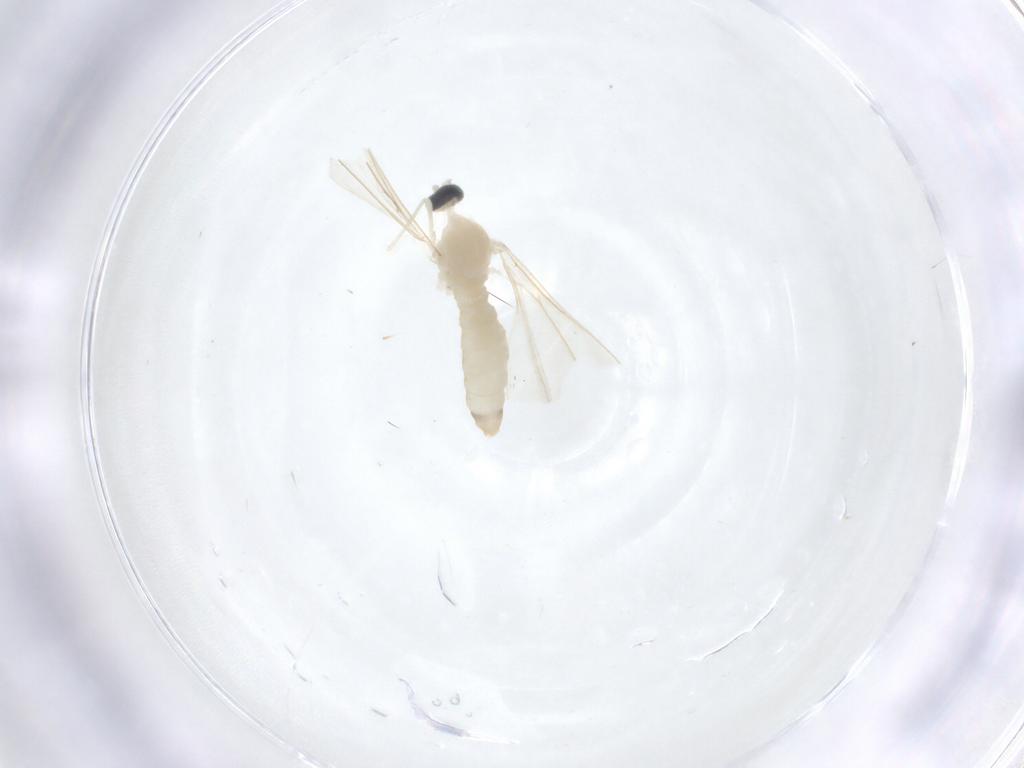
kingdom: Animalia
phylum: Arthropoda
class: Insecta
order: Diptera
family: Cecidomyiidae
